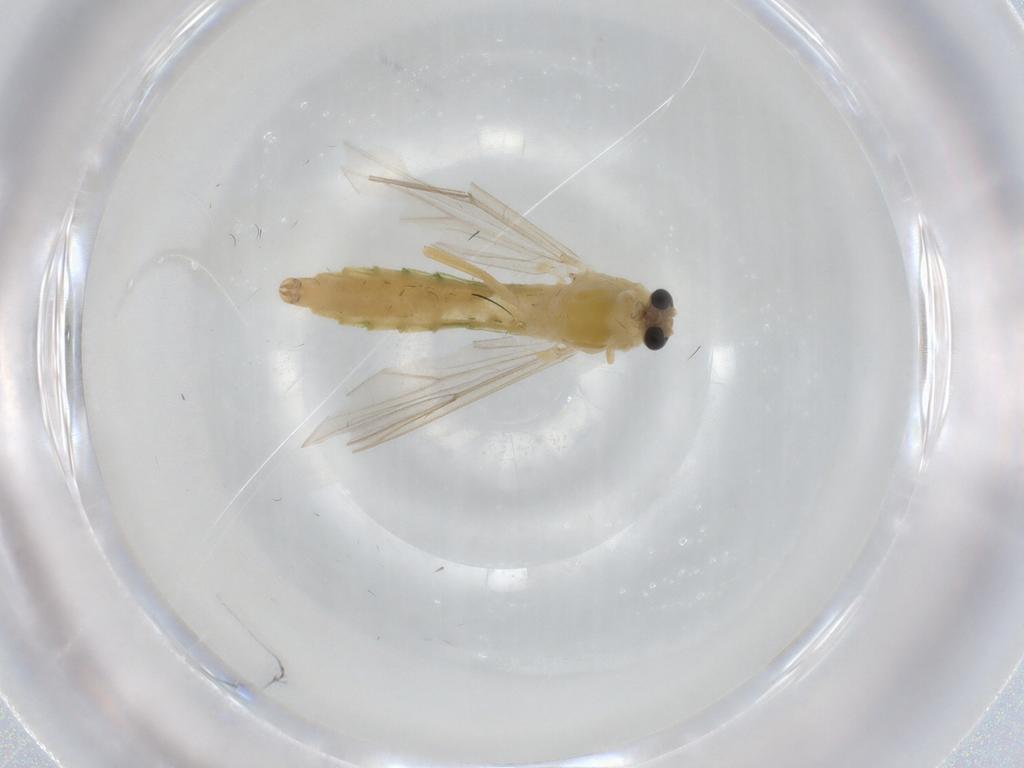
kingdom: Animalia
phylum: Arthropoda
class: Insecta
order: Diptera
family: Chironomidae
